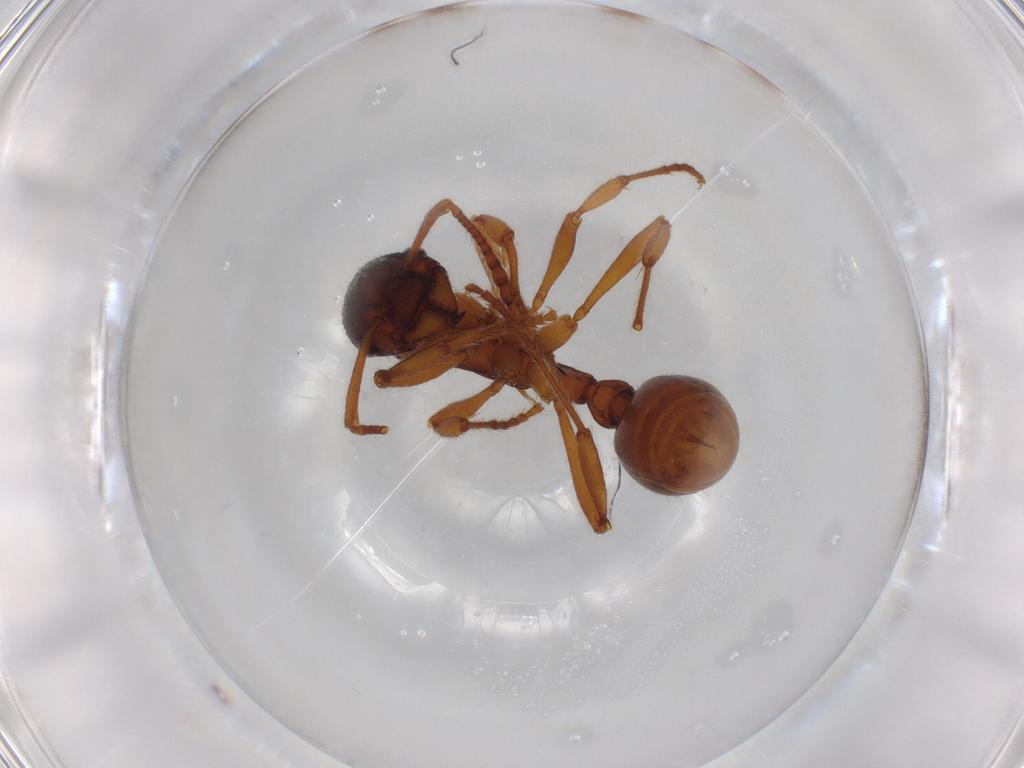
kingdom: Animalia
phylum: Arthropoda
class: Insecta
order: Hymenoptera
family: Formicidae
